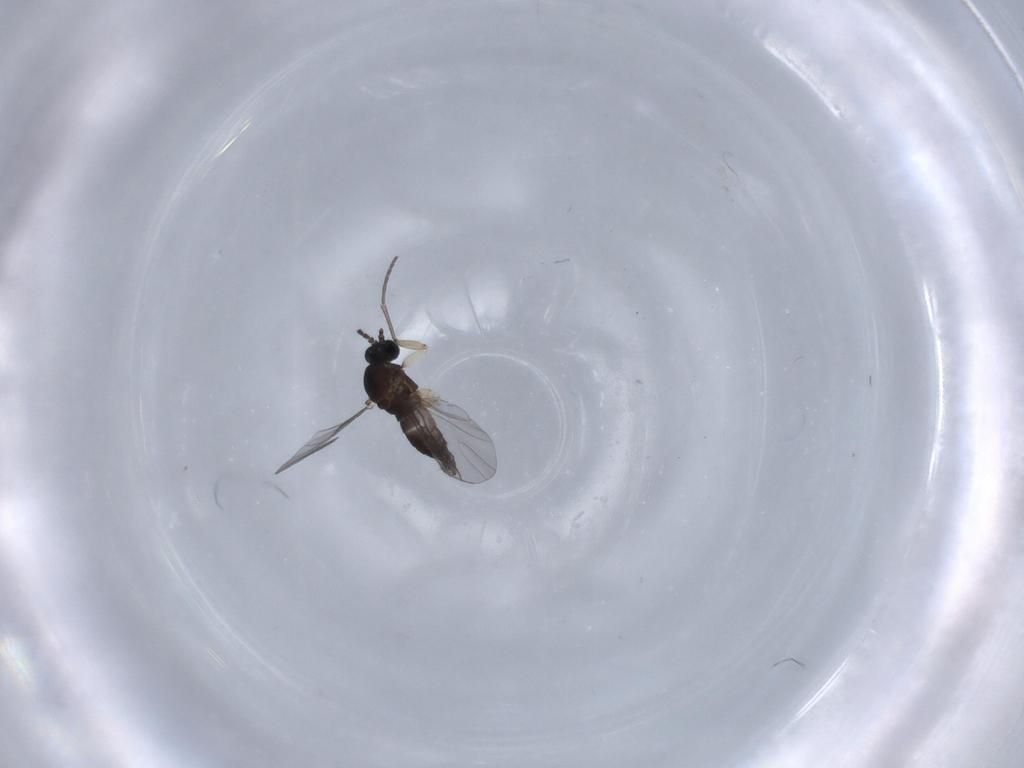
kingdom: Animalia
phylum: Arthropoda
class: Insecta
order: Diptera
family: Sciaridae
